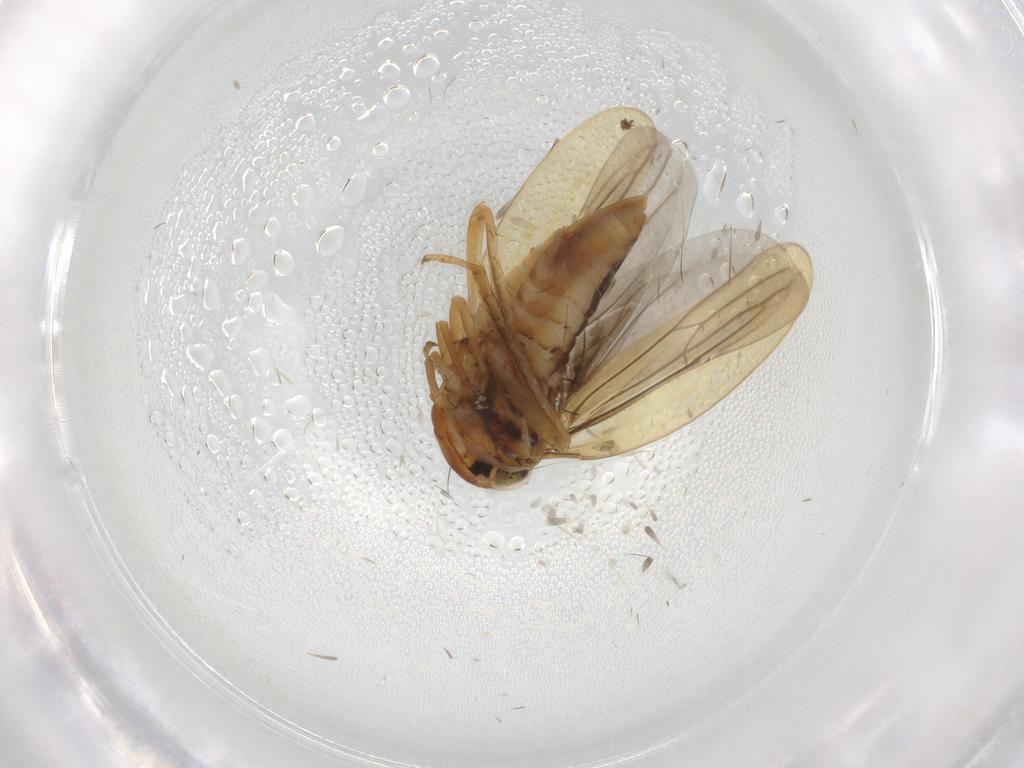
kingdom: Animalia
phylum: Arthropoda
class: Insecta
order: Hemiptera
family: Cicadellidae
